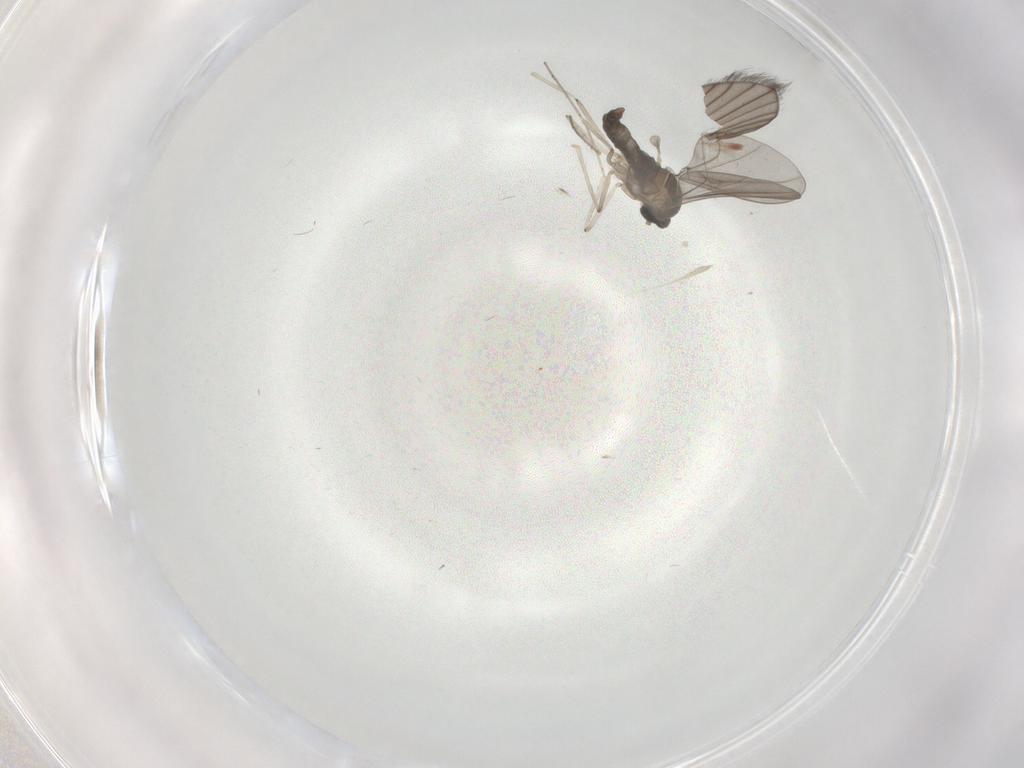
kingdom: Animalia
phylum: Arthropoda
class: Insecta
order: Diptera
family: Cecidomyiidae
